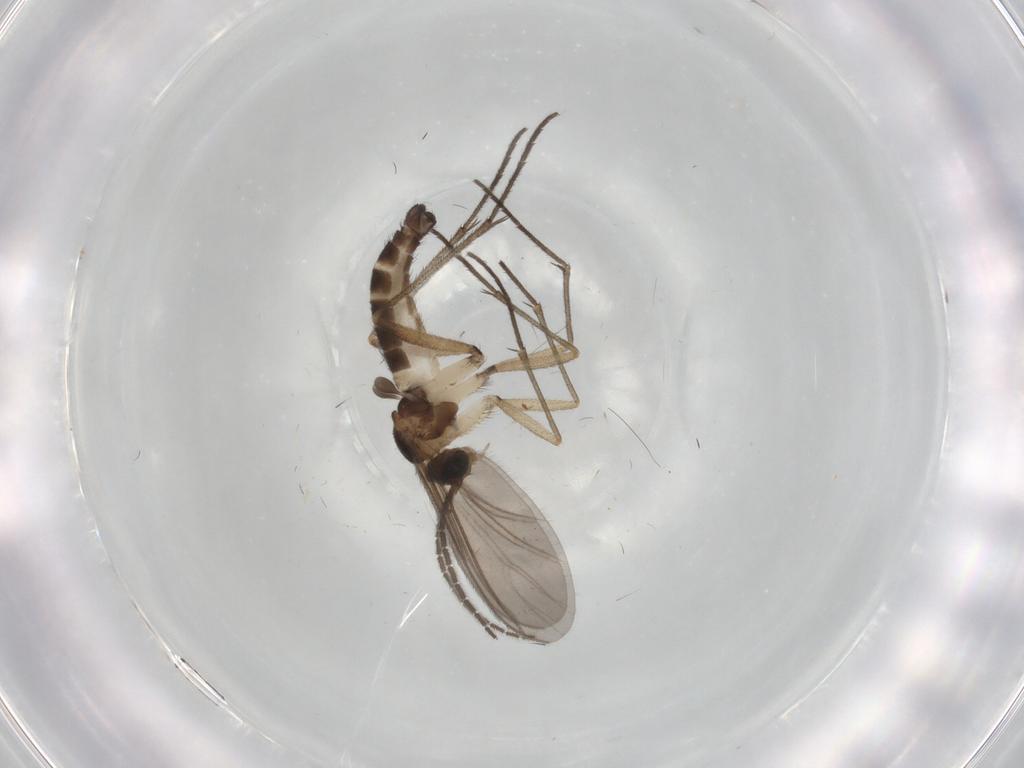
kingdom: Animalia
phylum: Arthropoda
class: Insecta
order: Diptera
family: Sciaridae
